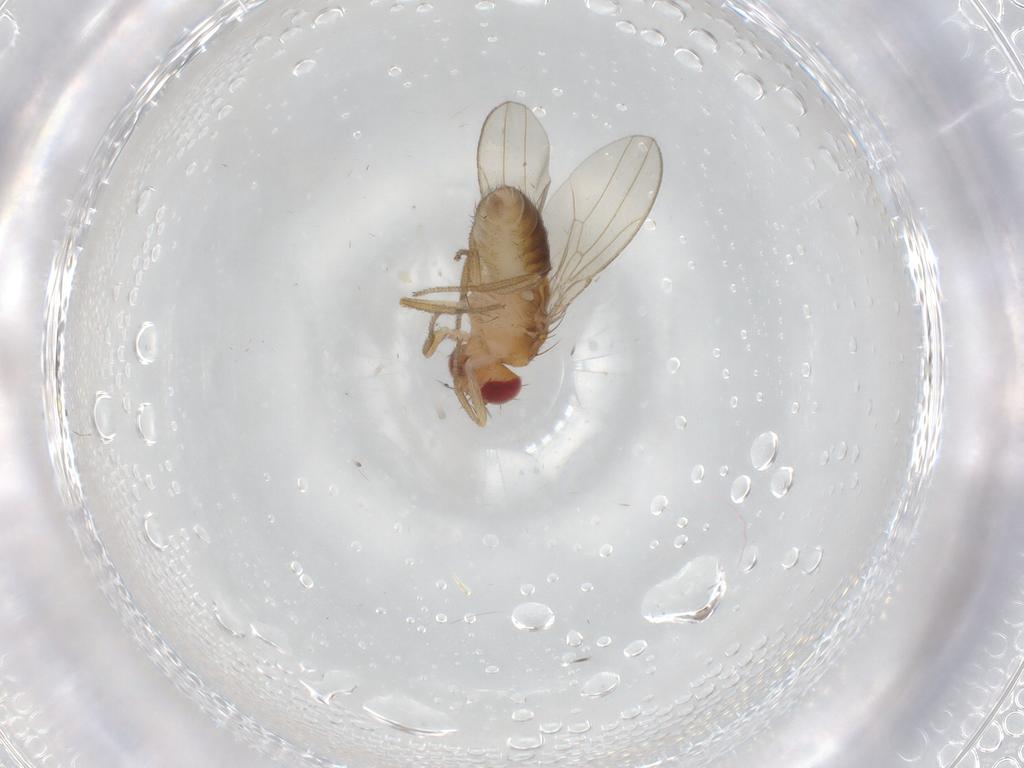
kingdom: Animalia
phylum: Arthropoda
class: Insecta
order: Diptera
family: Drosophilidae
